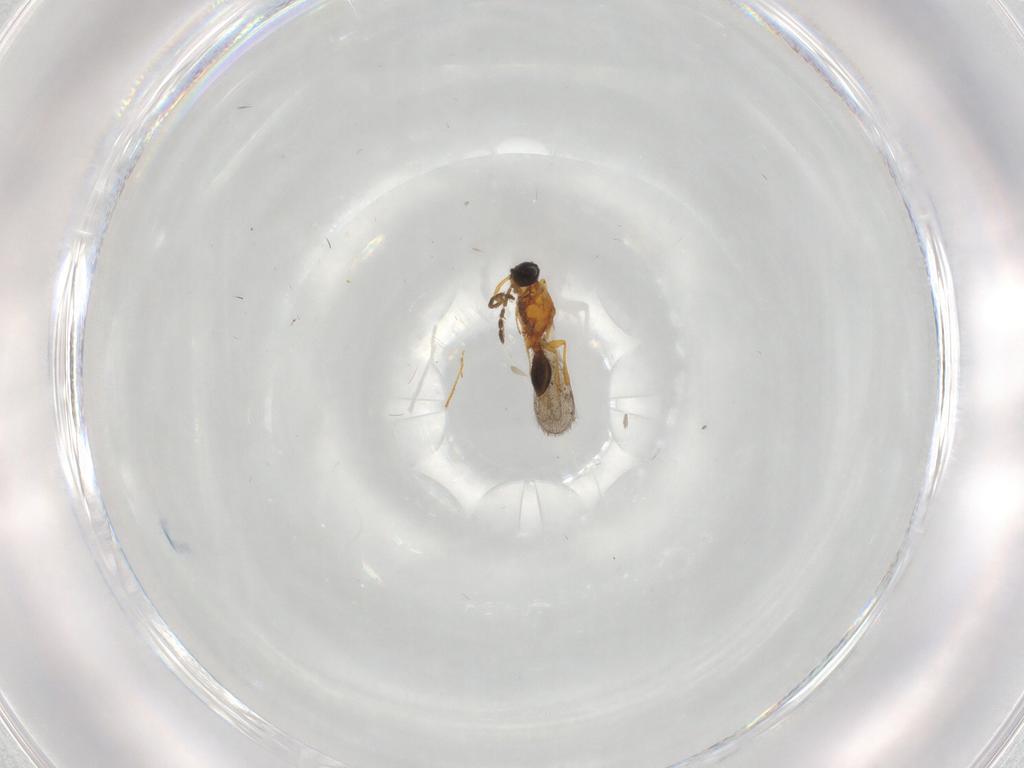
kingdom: Animalia
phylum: Arthropoda
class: Insecta
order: Hymenoptera
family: Platygastridae
